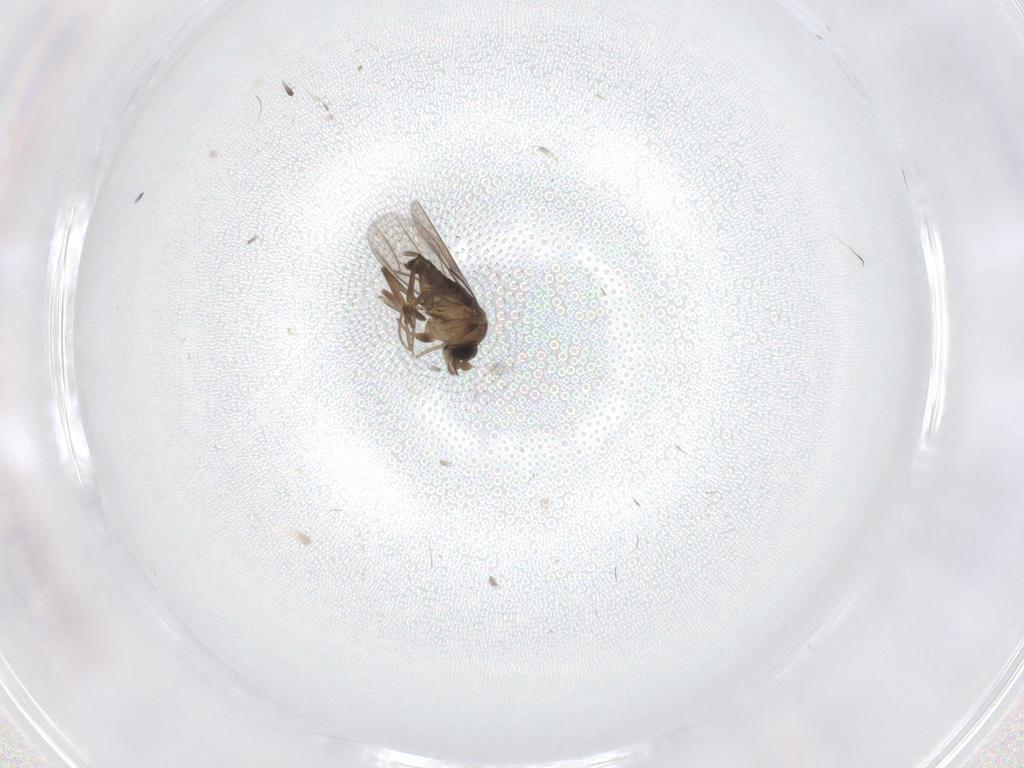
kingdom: Animalia
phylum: Arthropoda
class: Insecta
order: Diptera
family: Phoridae
